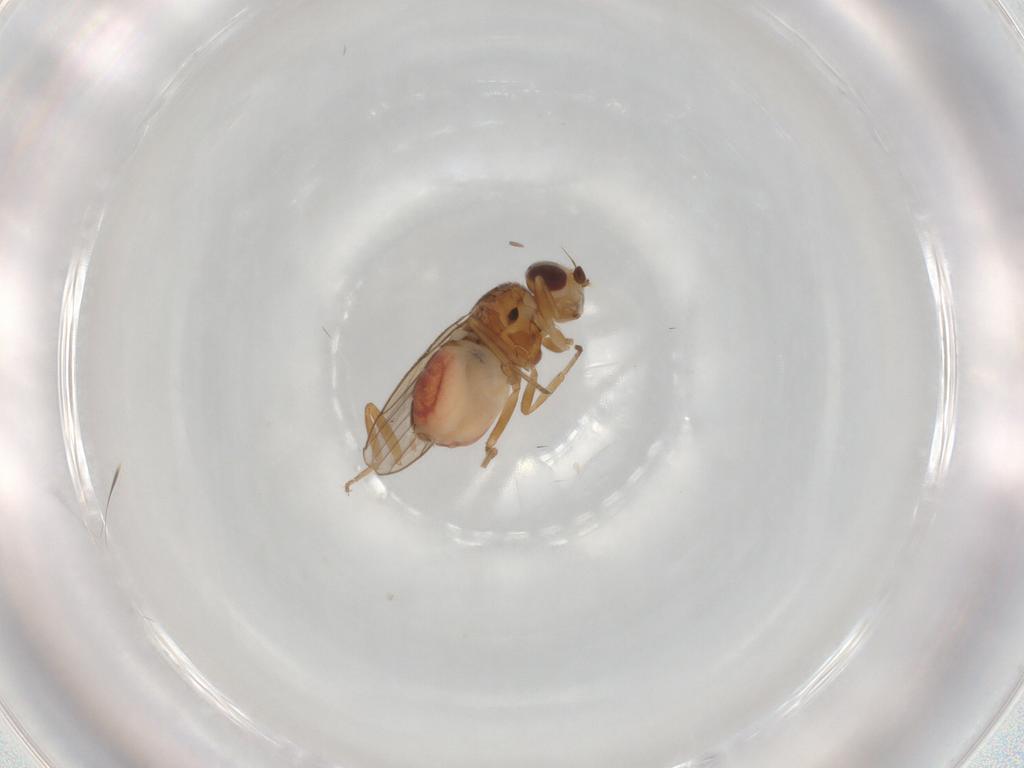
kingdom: Animalia
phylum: Arthropoda
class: Insecta
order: Diptera
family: Chloropidae
